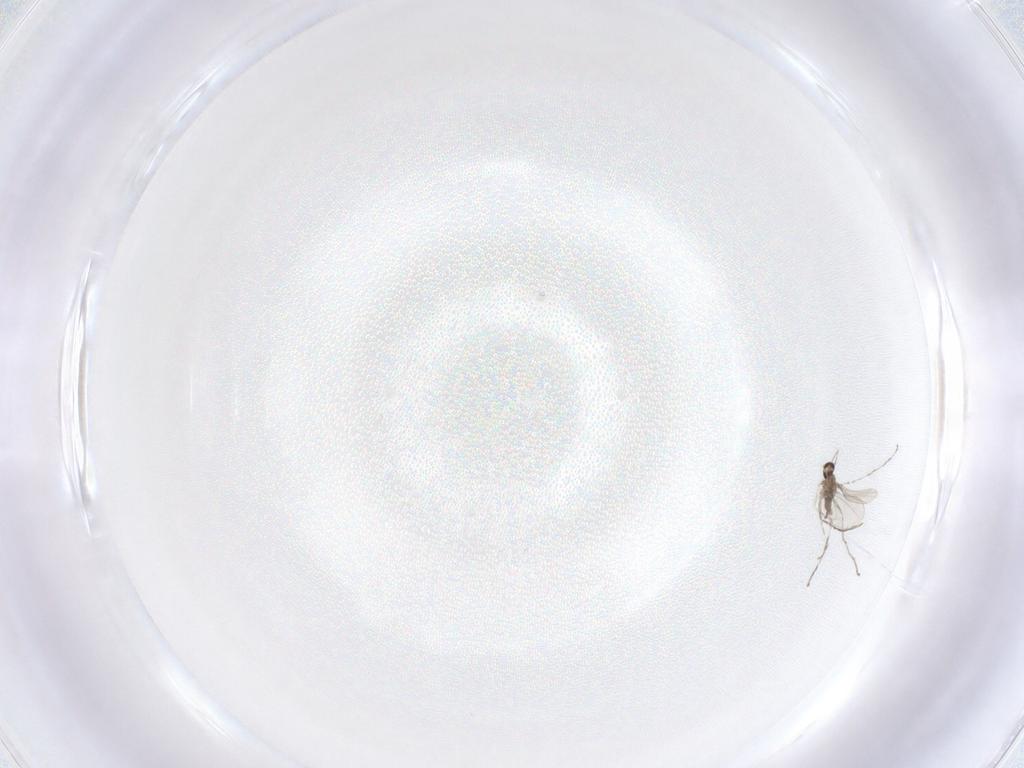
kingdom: Animalia
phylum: Arthropoda
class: Insecta
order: Diptera
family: Cecidomyiidae
